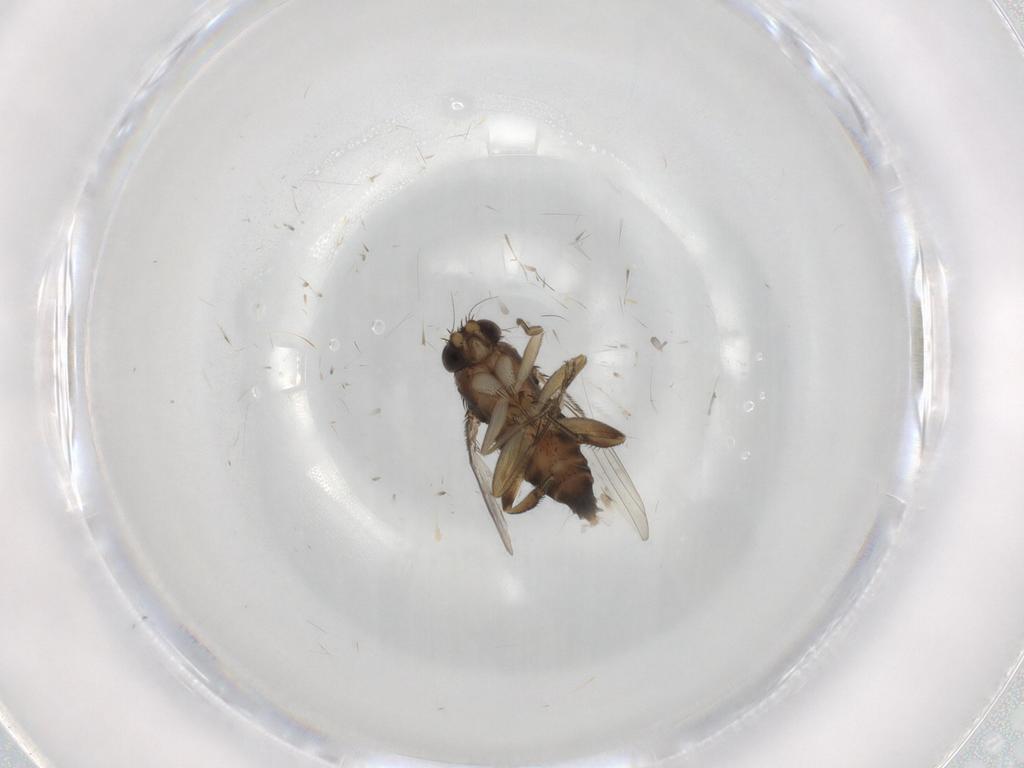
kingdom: Animalia
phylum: Arthropoda
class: Insecta
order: Diptera
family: Phoridae
